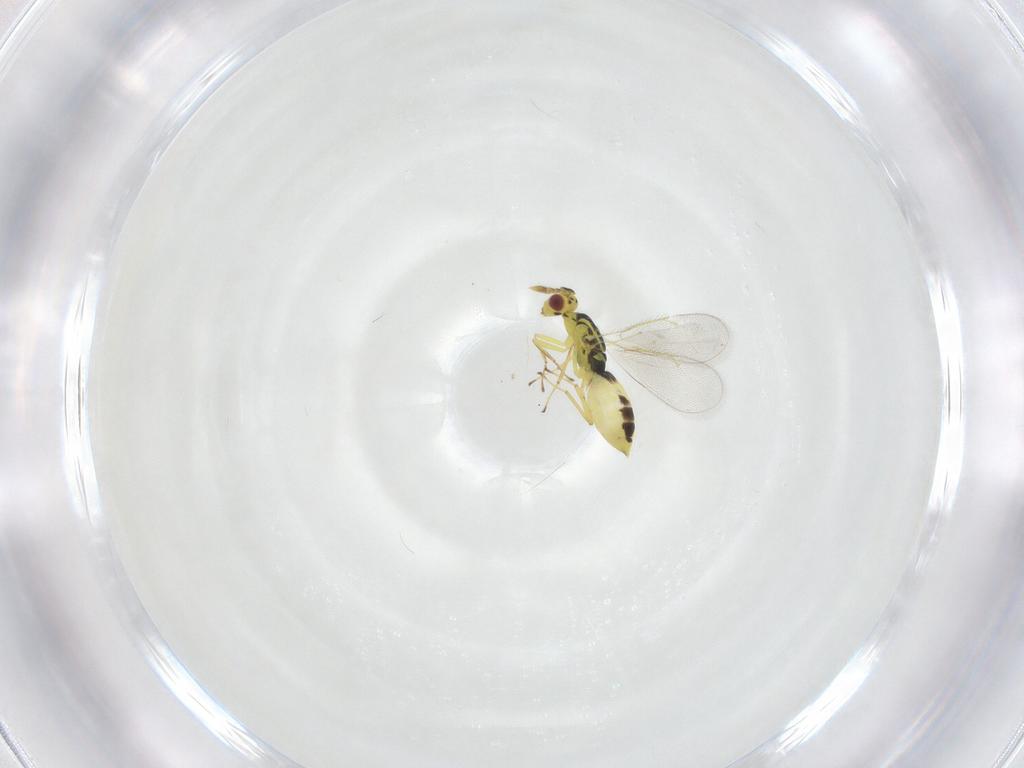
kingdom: Animalia
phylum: Arthropoda
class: Insecta
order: Hymenoptera
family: Eulophidae
